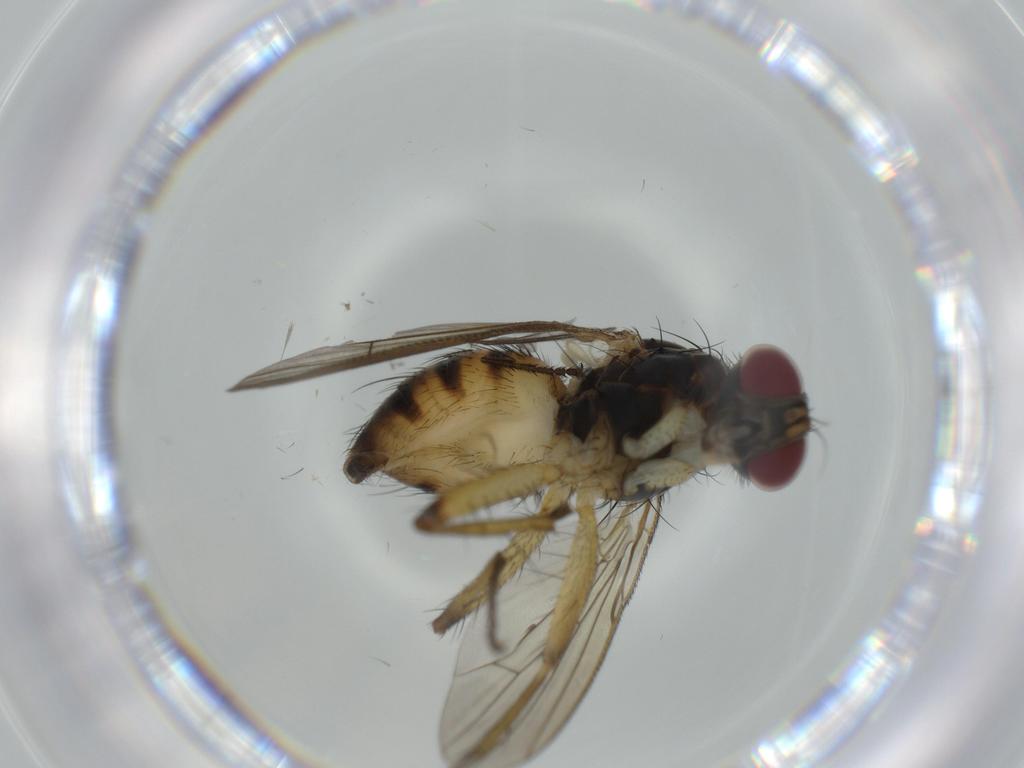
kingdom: Animalia
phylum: Arthropoda
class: Insecta
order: Diptera
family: Muscidae
